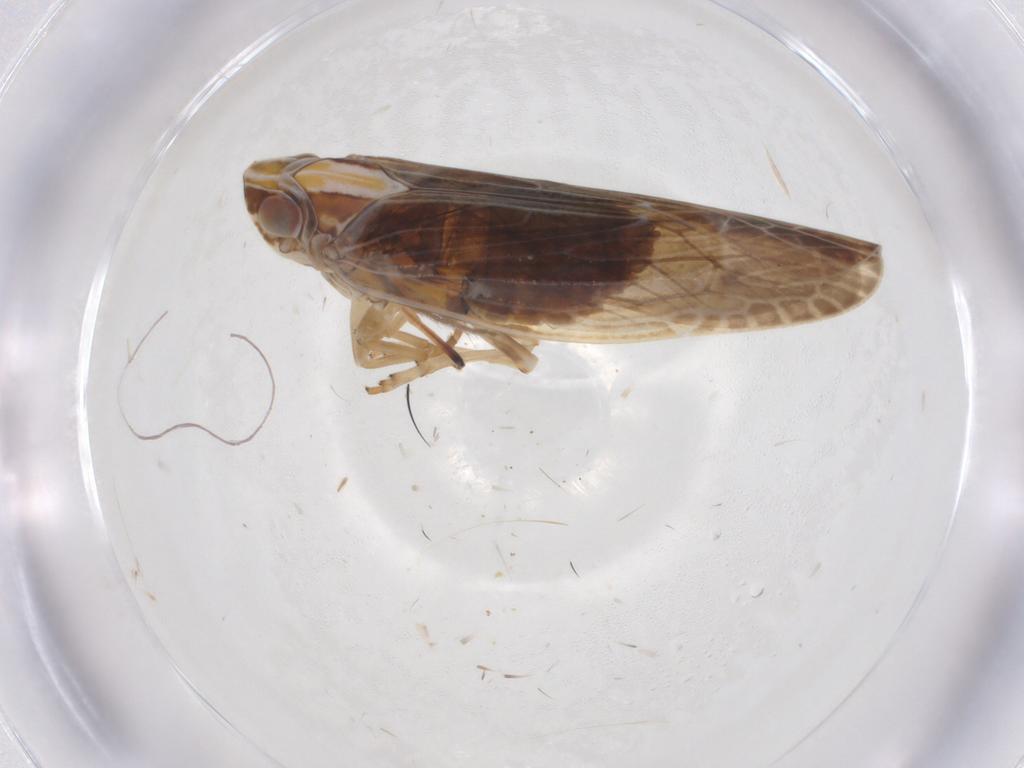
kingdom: Animalia
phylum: Arthropoda
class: Insecta
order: Hemiptera
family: Achilidae
